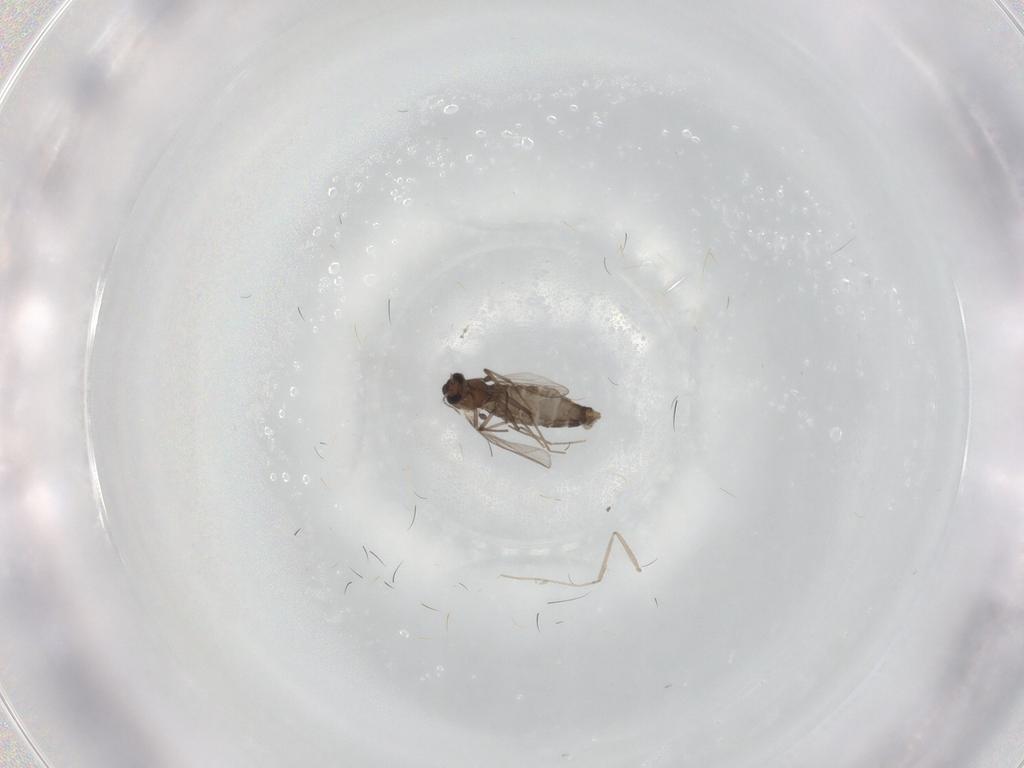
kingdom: Animalia
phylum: Arthropoda
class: Insecta
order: Diptera
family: Chironomidae
